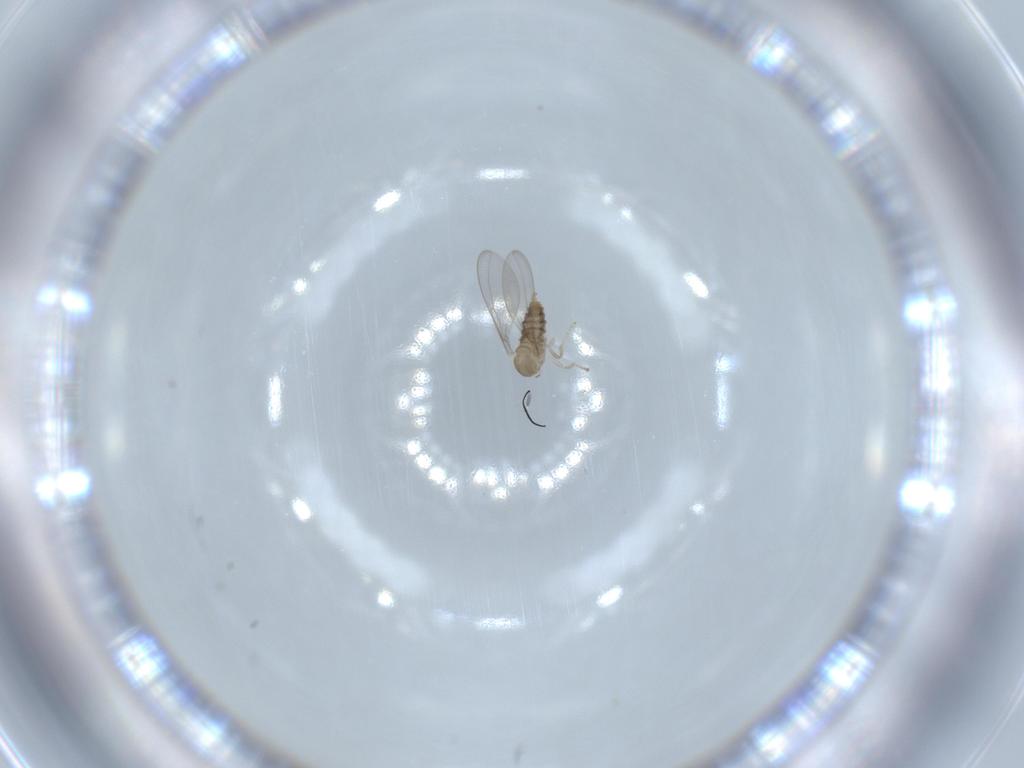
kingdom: Animalia
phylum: Arthropoda
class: Insecta
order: Diptera
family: Cecidomyiidae
